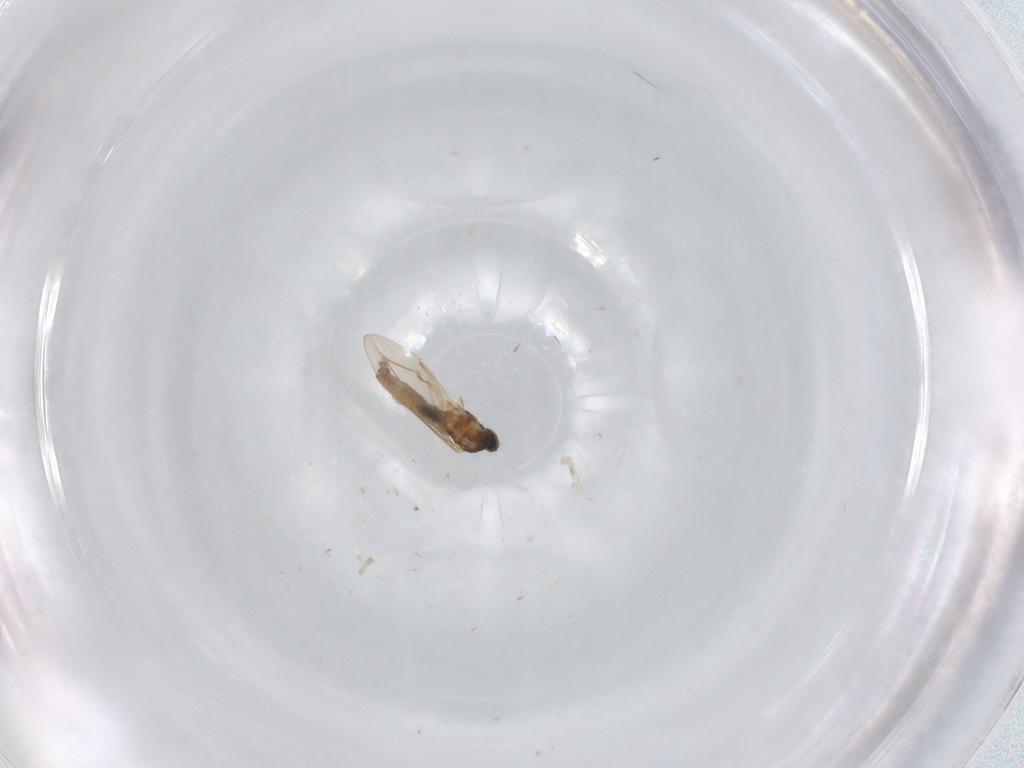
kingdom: Animalia
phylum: Arthropoda
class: Insecta
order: Diptera
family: Cecidomyiidae
